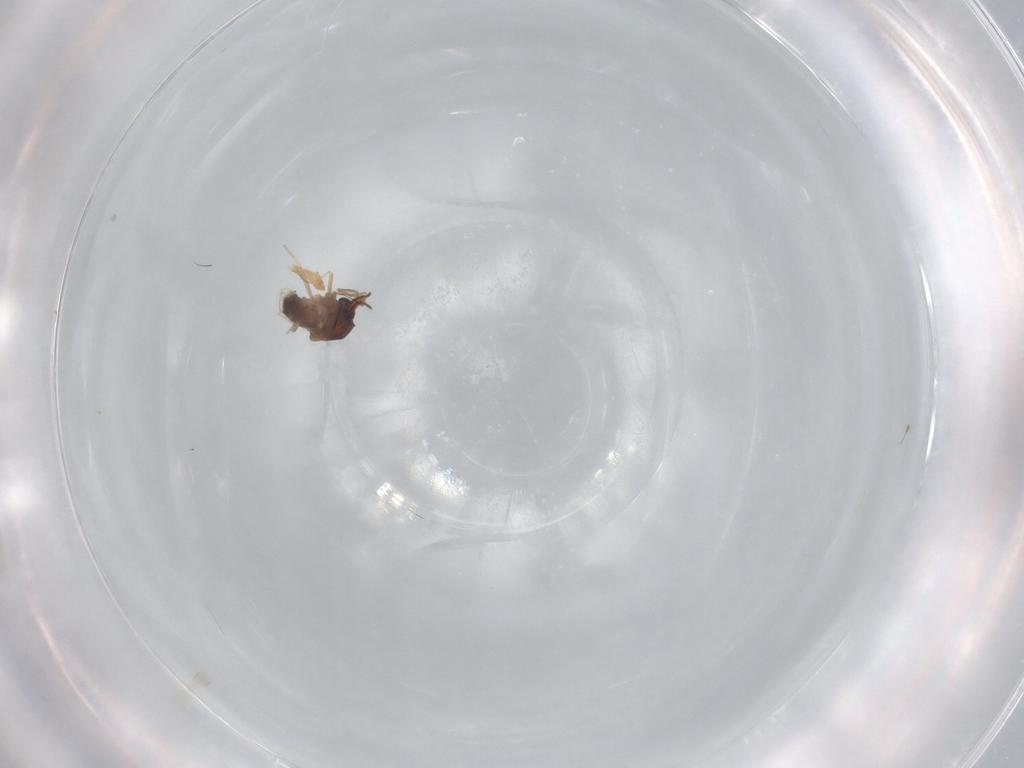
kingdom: Animalia
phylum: Arthropoda
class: Insecta
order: Diptera
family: Ceratopogonidae
